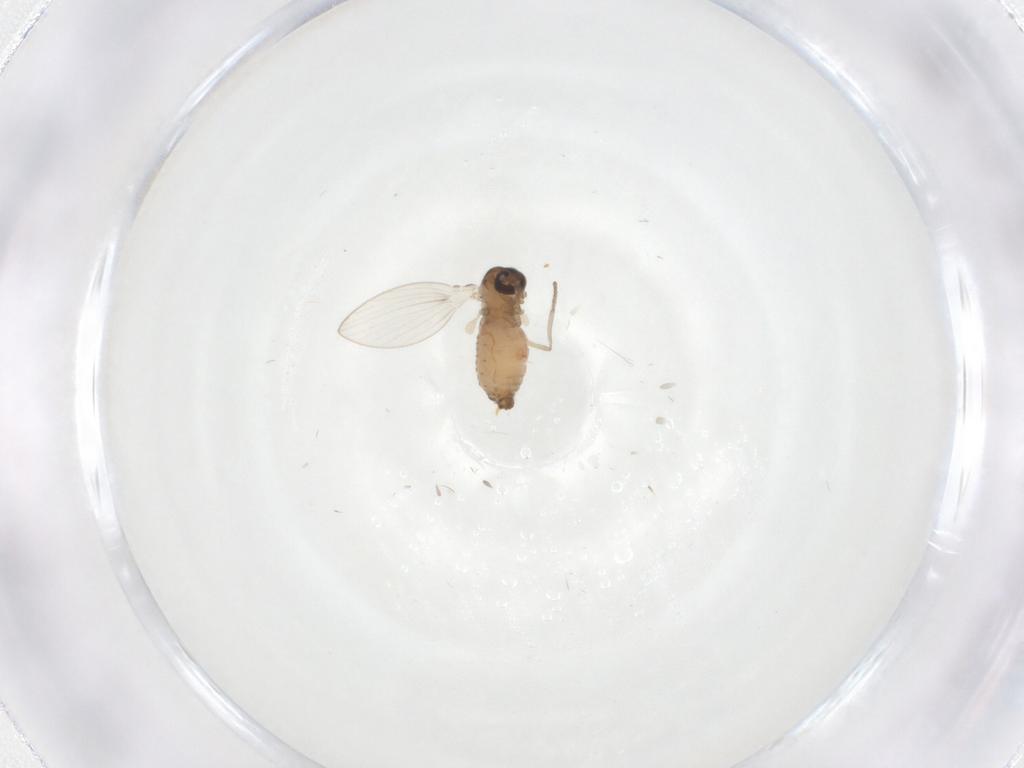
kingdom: Animalia
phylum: Arthropoda
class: Insecta
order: Diptera
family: Psychodidae
